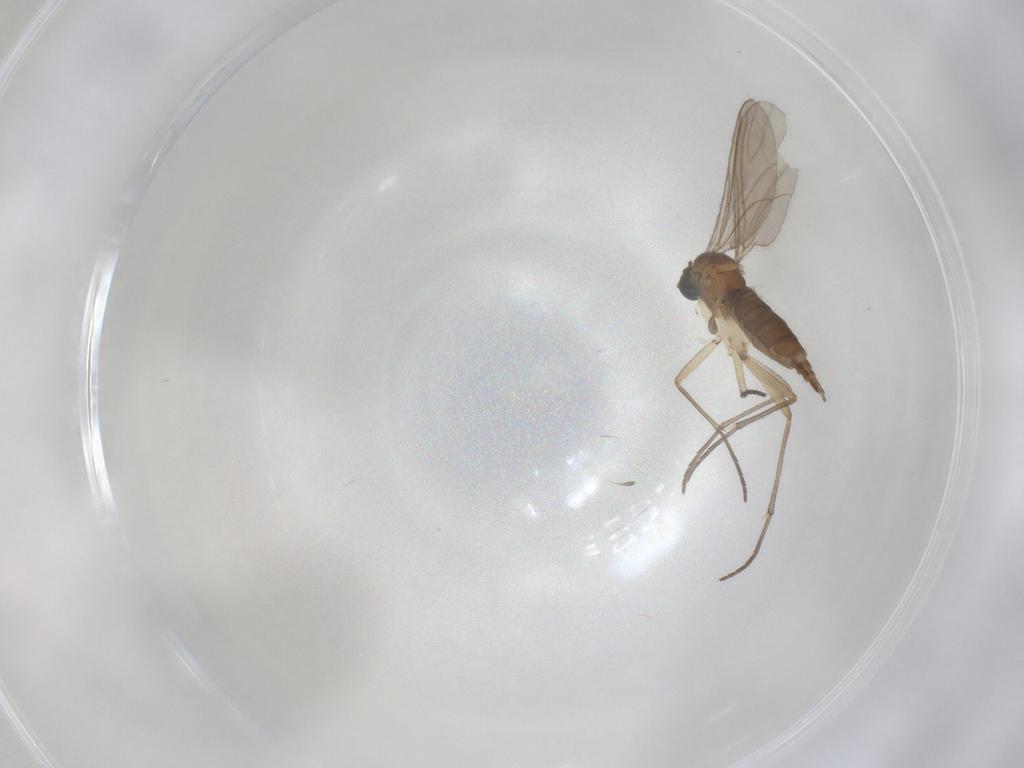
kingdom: Animalia
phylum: Arthropoda
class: Insecta
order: Diptera
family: Sciaridae
